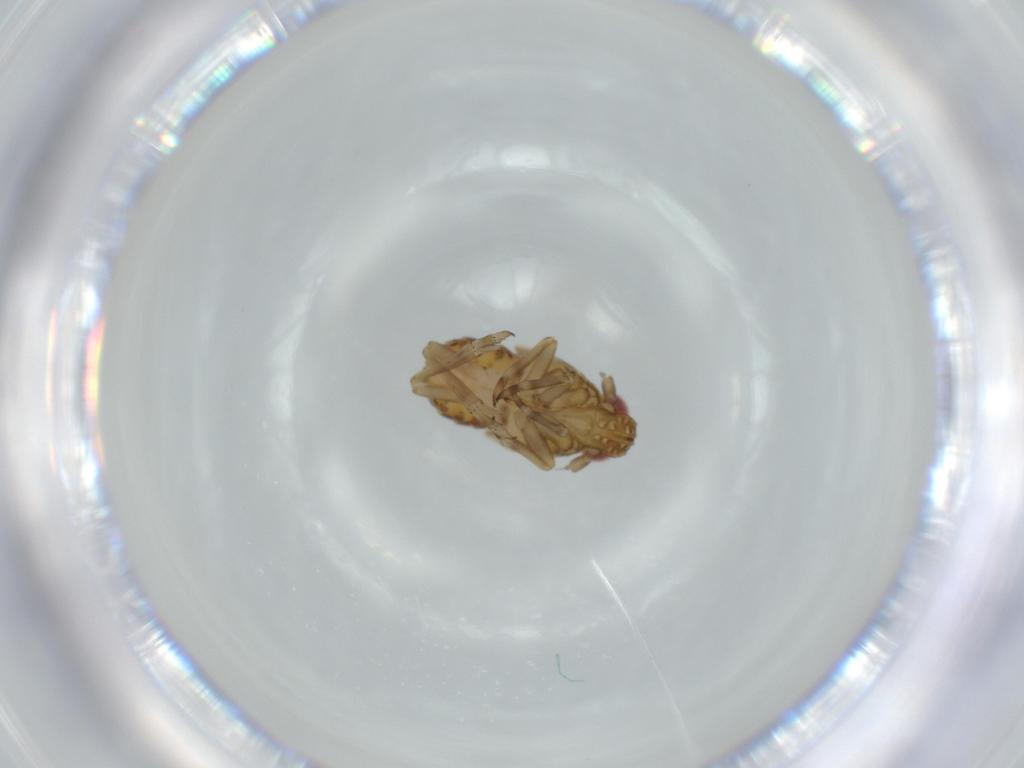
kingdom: Animalia
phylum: Arthropoda
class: Insecta
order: Hemiptera
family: Delphacidae
